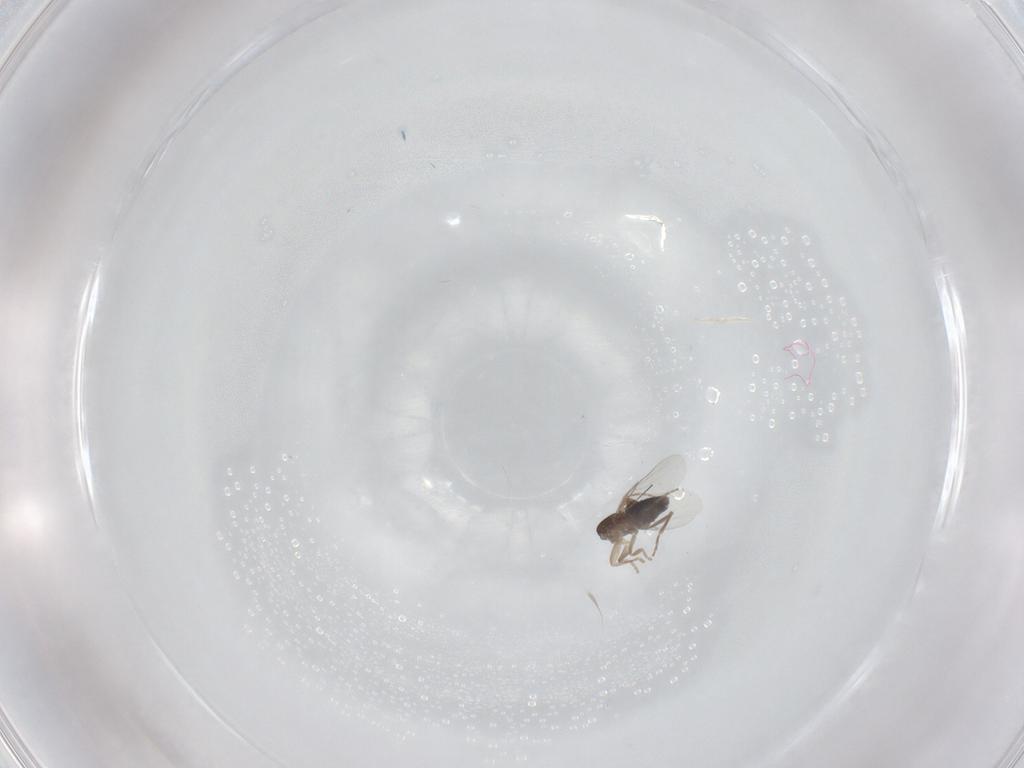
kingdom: Animalia
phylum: Arthropoda
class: Insecta
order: Diptera
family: Phoridae
